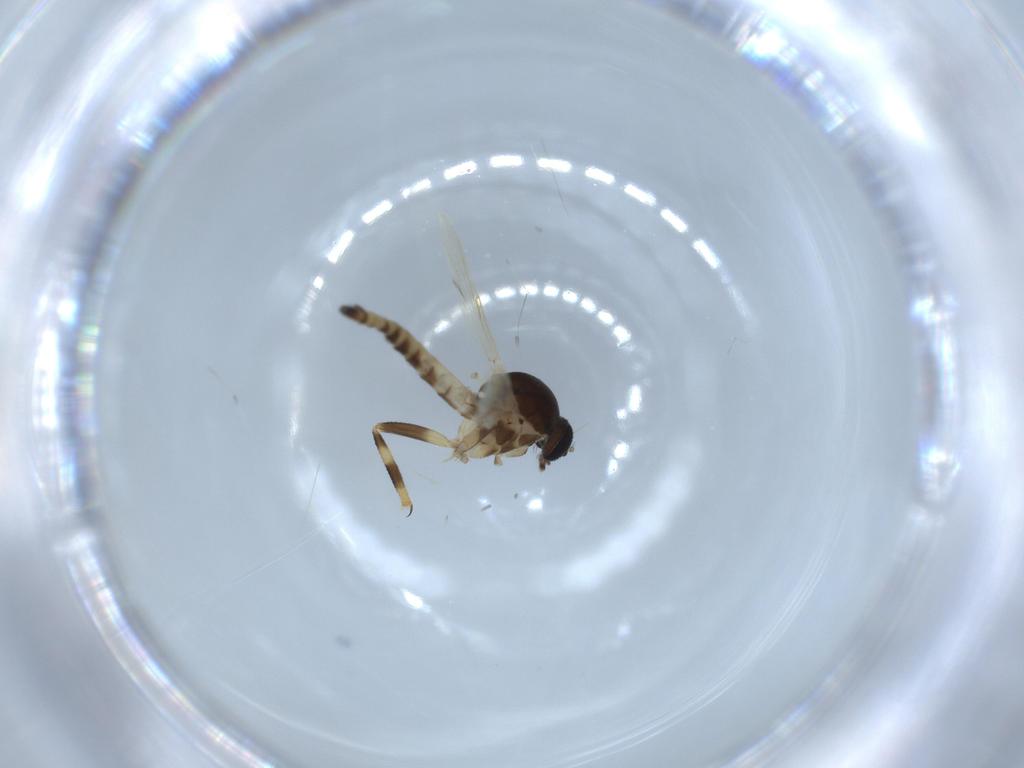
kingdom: Animalia
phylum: Arthropoda
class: Insecta
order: Diptera
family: Ceratopogonidae
